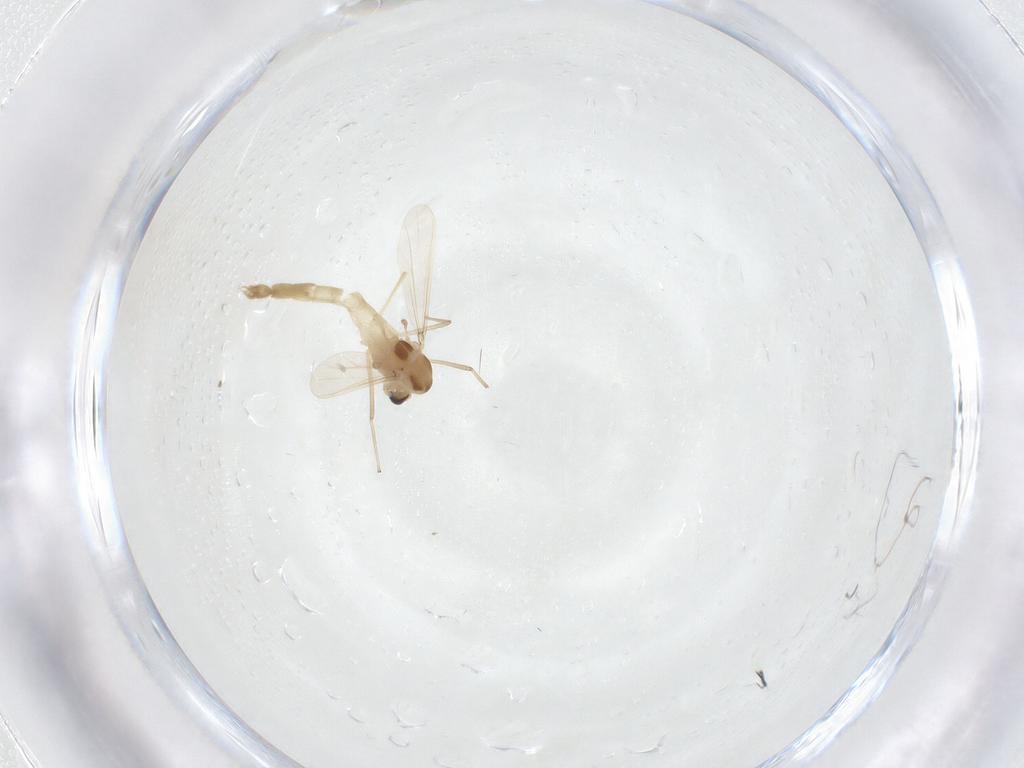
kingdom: Animalia
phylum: Arthropoda
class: Insecta
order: Diptera
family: Chironomidae
